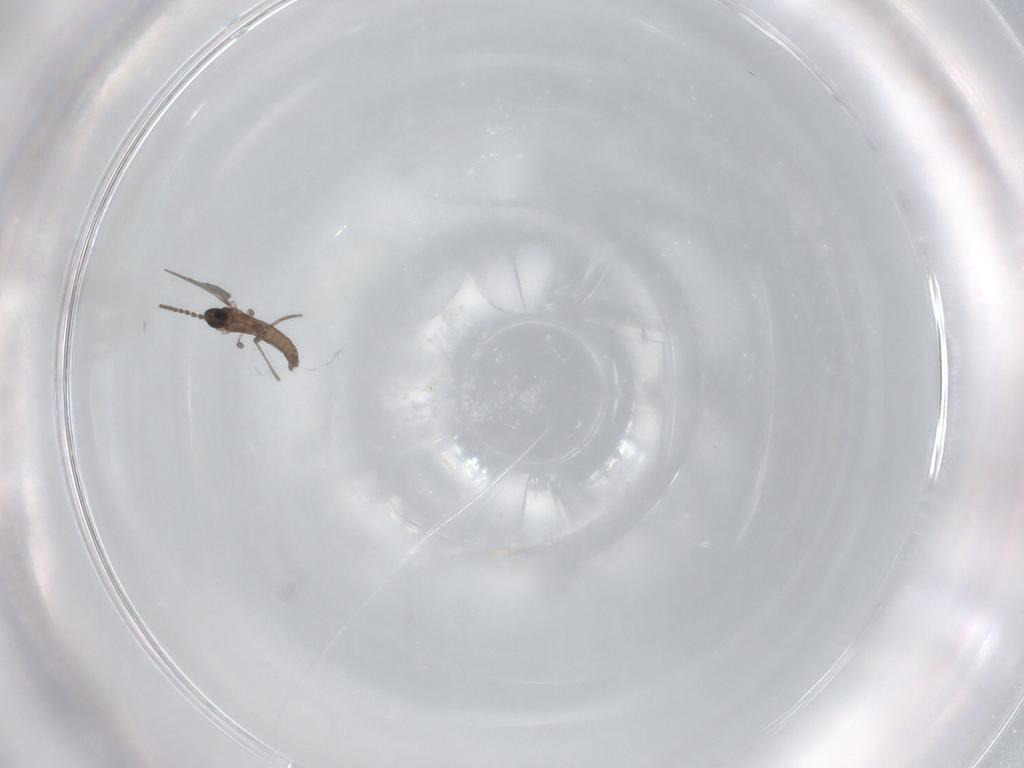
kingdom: Animalia
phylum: Arthropoda
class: Insecta
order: Diptera
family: Sciaridae
